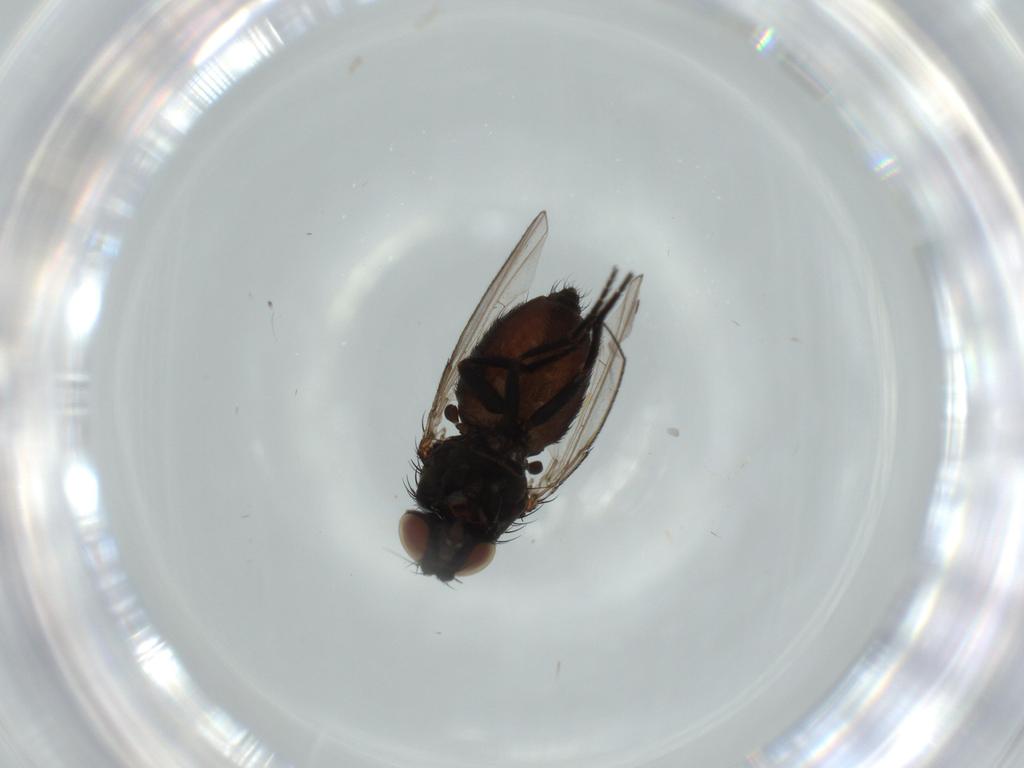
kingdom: Animalia
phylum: Arthropoda
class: Insecta
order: Diptera
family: Milichiidae
